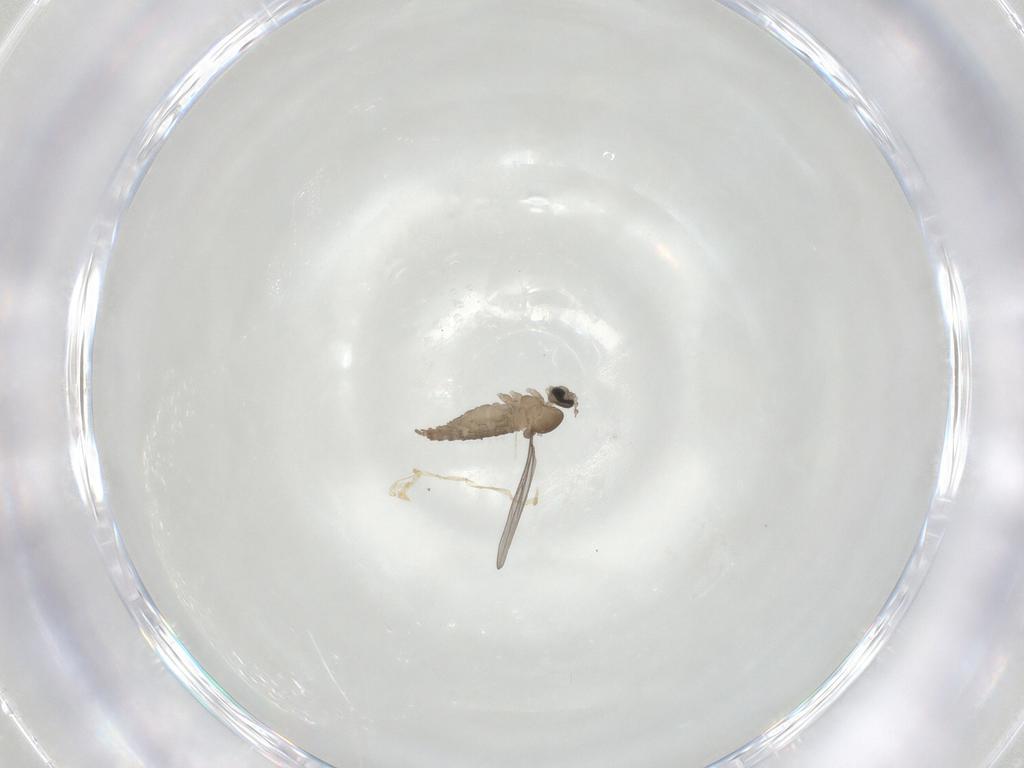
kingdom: Animalia
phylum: Arthropoda
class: Insecta
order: Diptera
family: Cecidomyiidae
